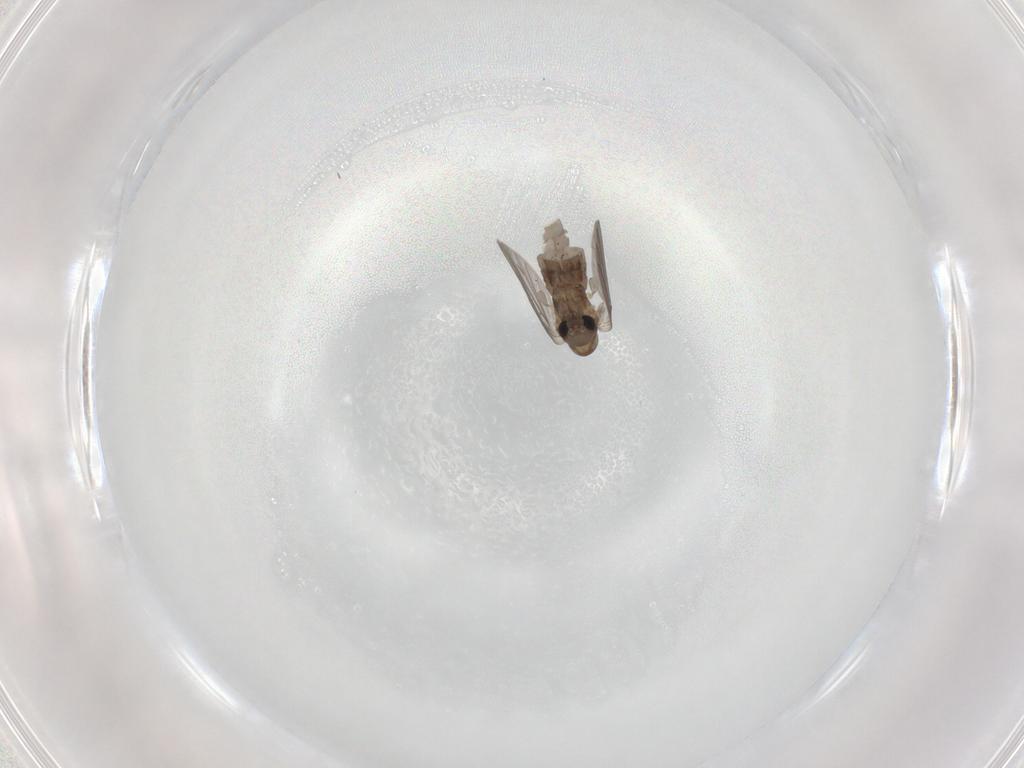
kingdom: Animalia
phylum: Arthropoda
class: Insecta
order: Diptera
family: Psychodidae
